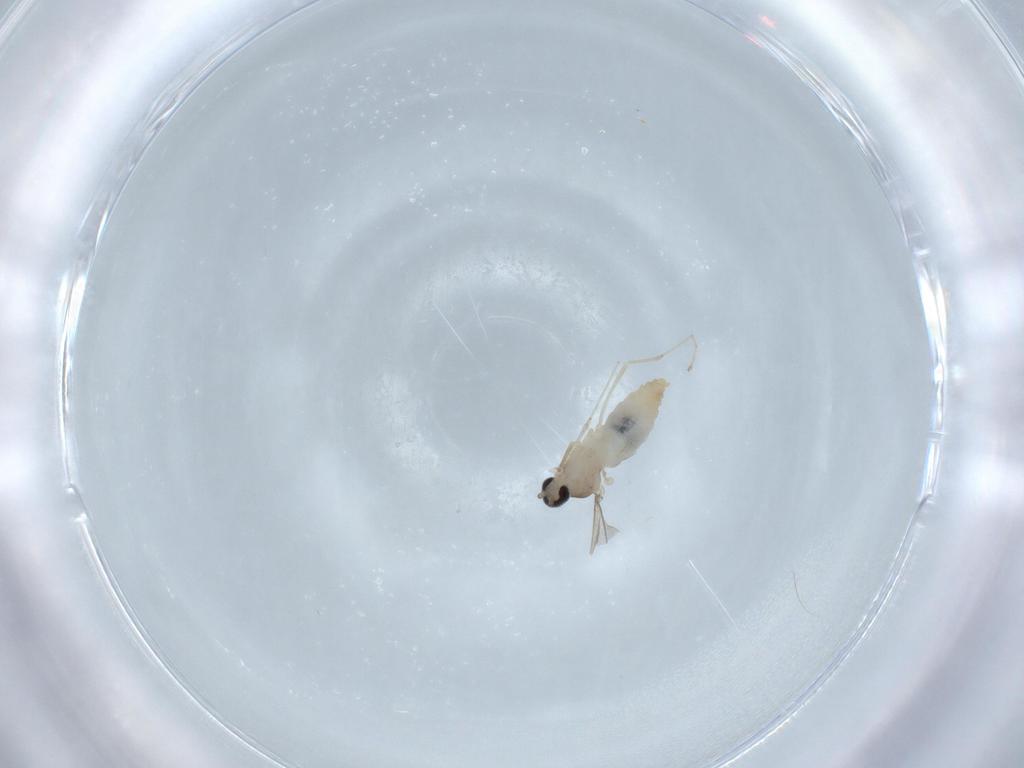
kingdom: Animalia
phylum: Arthropoda
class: Insecta
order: Diptera
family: Cecidomyiidae
